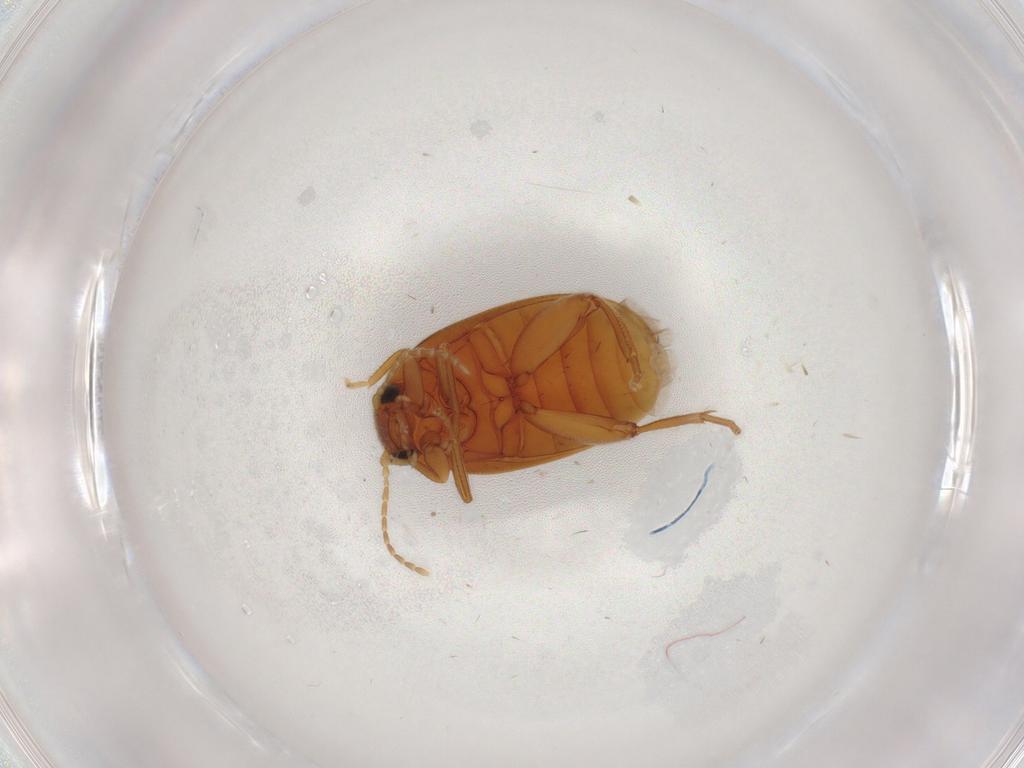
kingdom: Animalia
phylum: Arthropoda
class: Insecta
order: Coleoptera
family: Scirtidae
